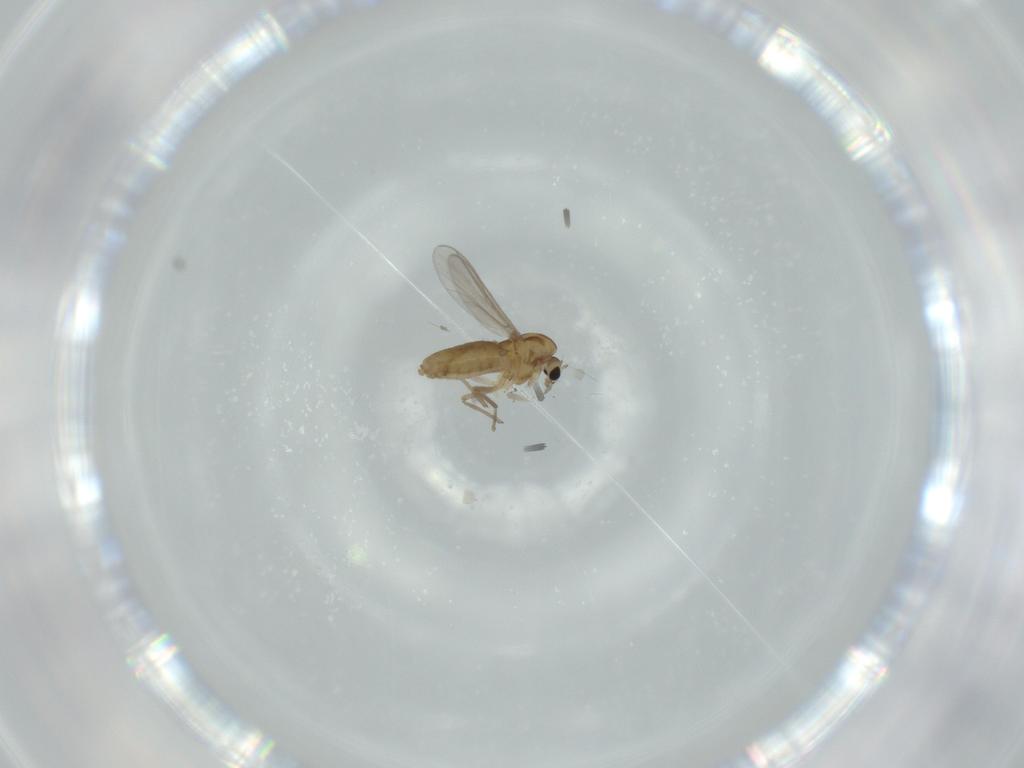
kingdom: Animalia
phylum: Arthropoda
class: Insecta
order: Diptera
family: Chironomidae
